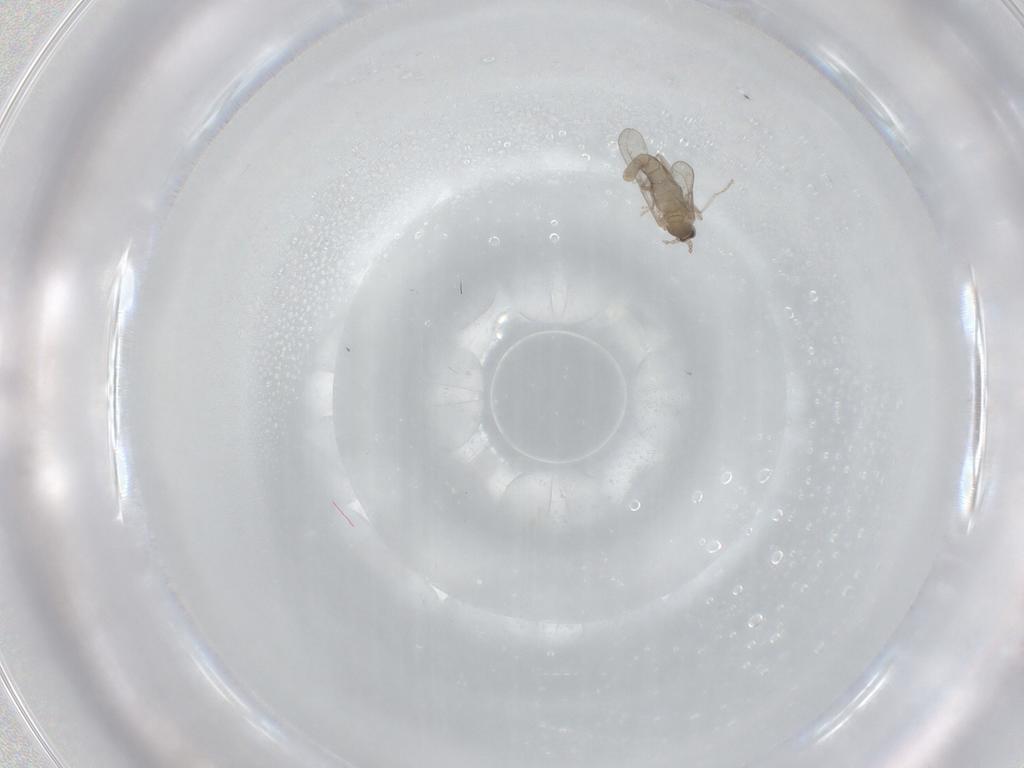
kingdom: Animalia
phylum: Arthropoda
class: Insecta
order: Diptera
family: Cecidomyiidae
